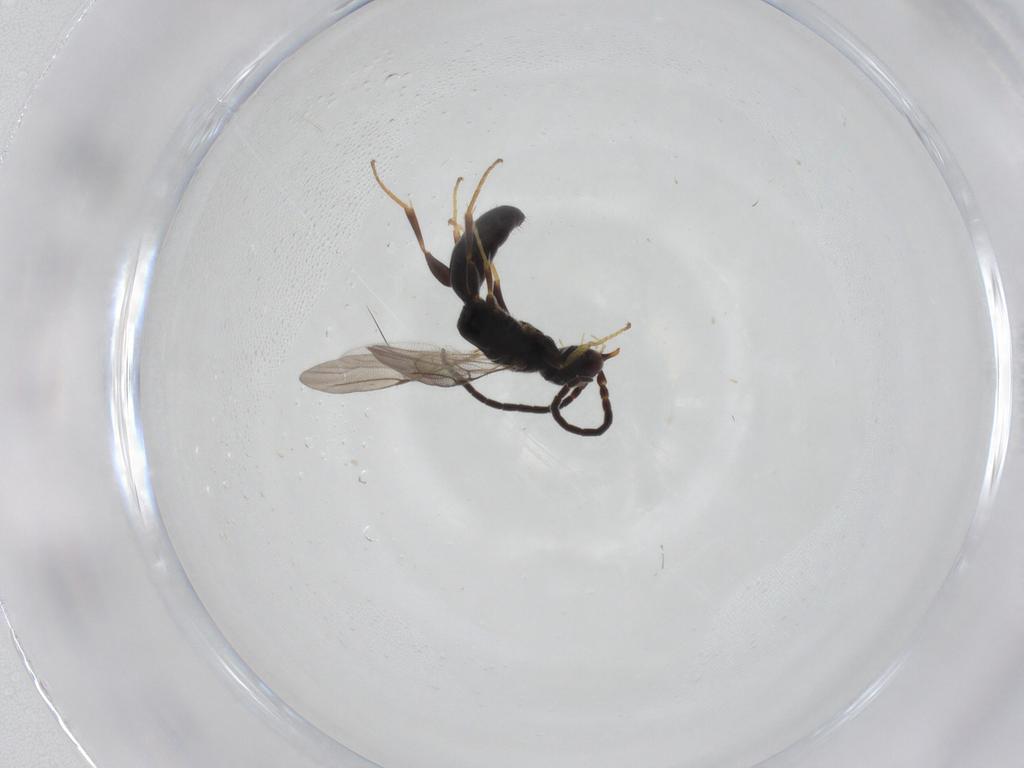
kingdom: Animalia
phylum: Arthropoda
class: Insecta
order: Hymenoptera
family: Bethylidae
